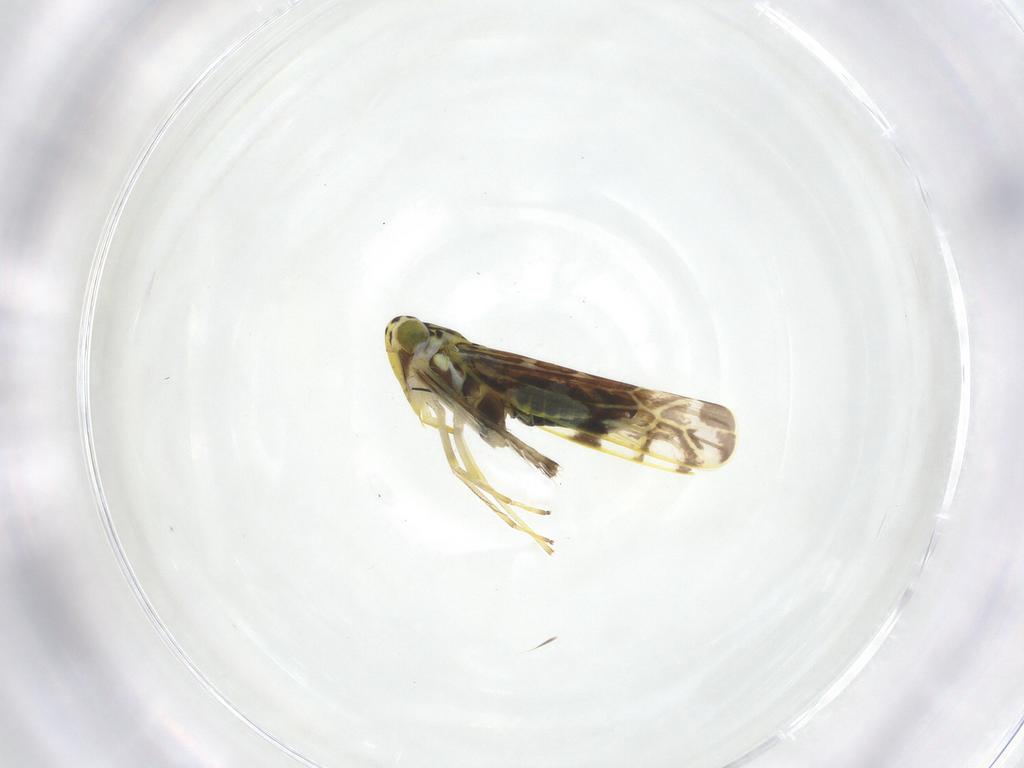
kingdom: Animalia
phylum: Arthropoda
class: Insecta
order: Hemiptera
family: Cicadellidae
